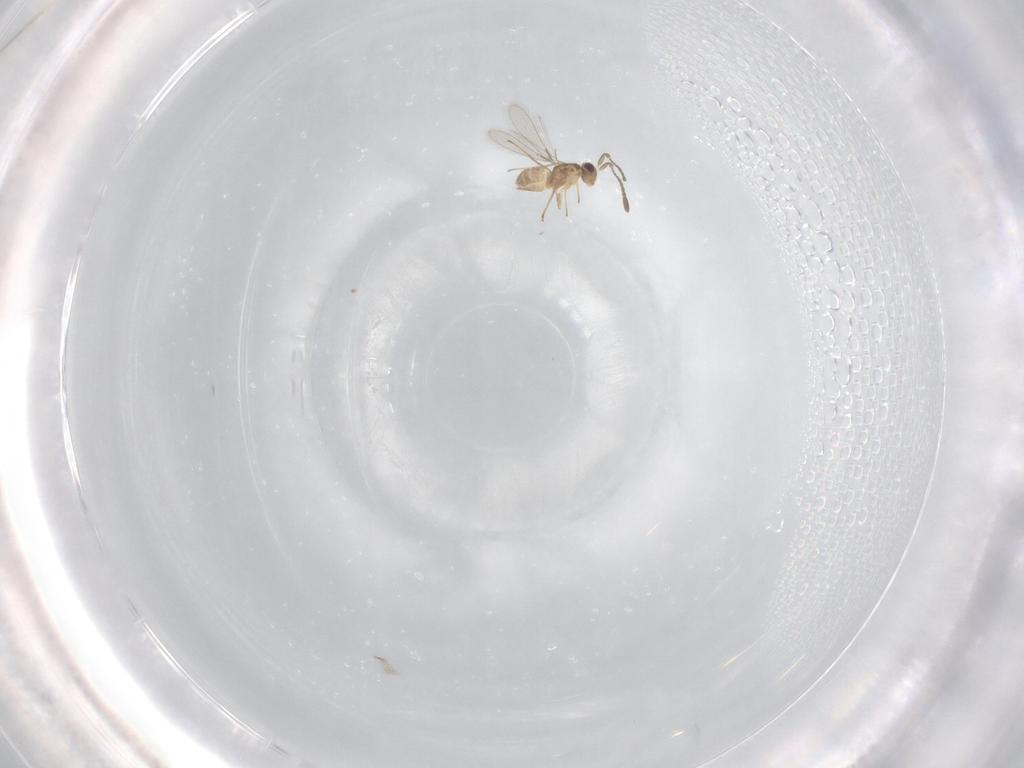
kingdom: Animalia
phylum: Arthropoda
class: Insecta
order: Hymenoptera
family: Mymaridae
